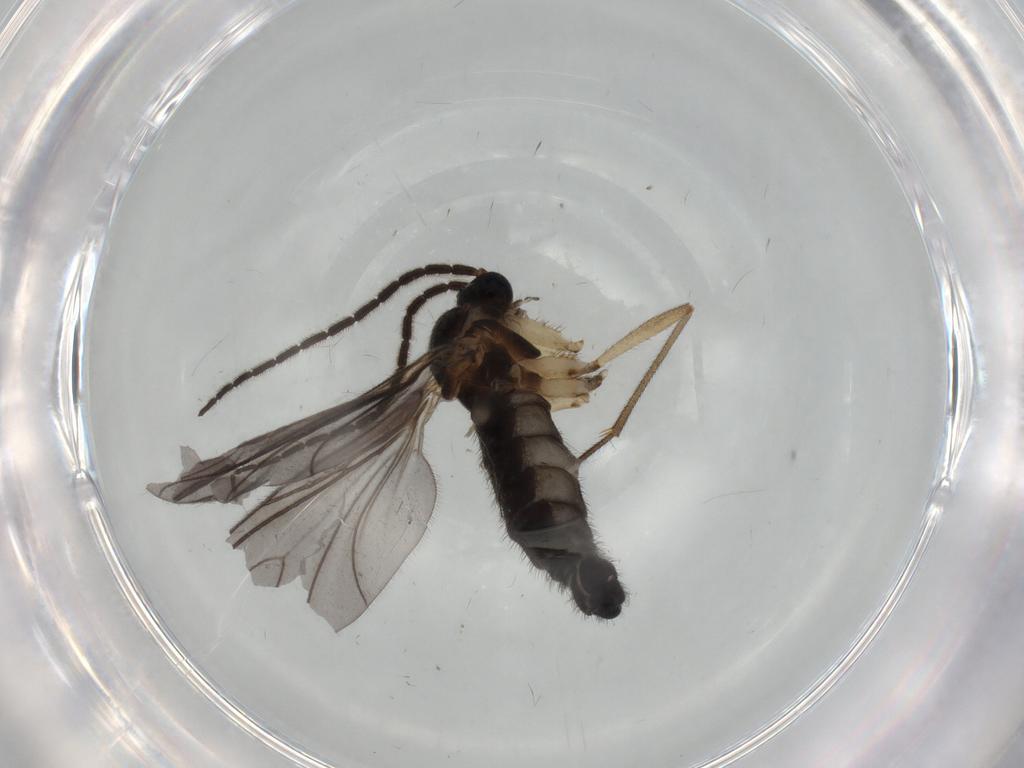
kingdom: Animalia
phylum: Arthropoda
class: Insecta
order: Diptera
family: Sciaridae
